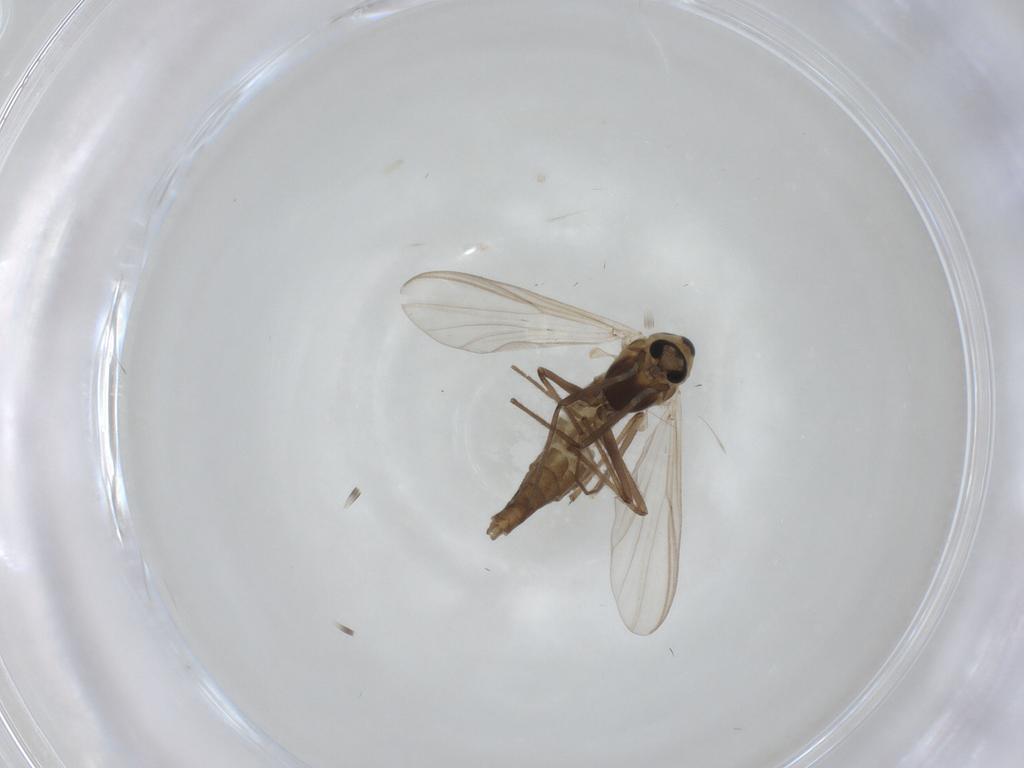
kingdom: Animalia
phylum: Arthropoda
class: Insecta
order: Diptera
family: Chironomidae
